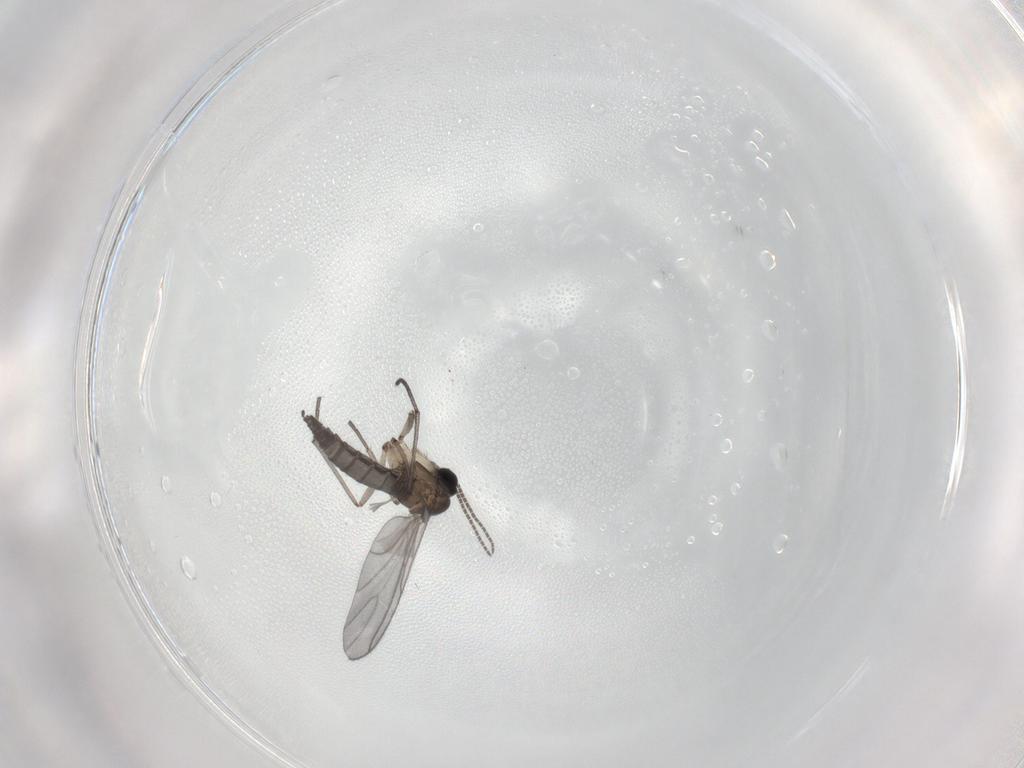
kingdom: Animalia
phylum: Arthropoda
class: Insecta
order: Diptera
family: Sciaridae
